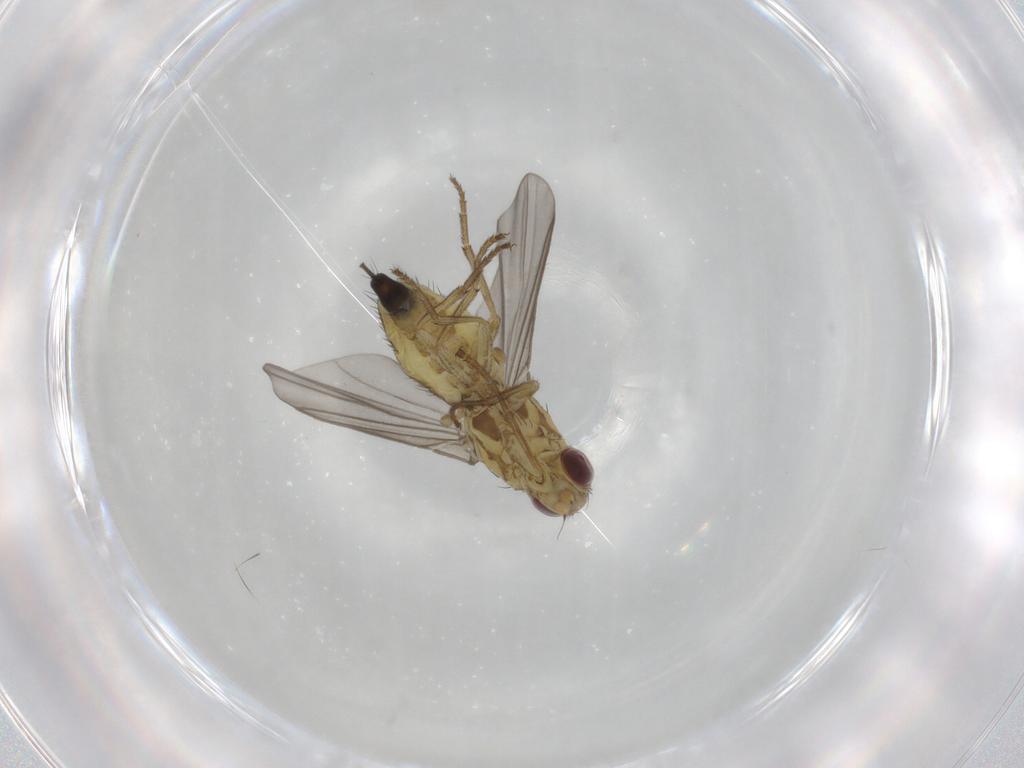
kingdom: Animalia
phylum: Arthropoda
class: Insecta
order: Diptera
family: Agromyzidae
